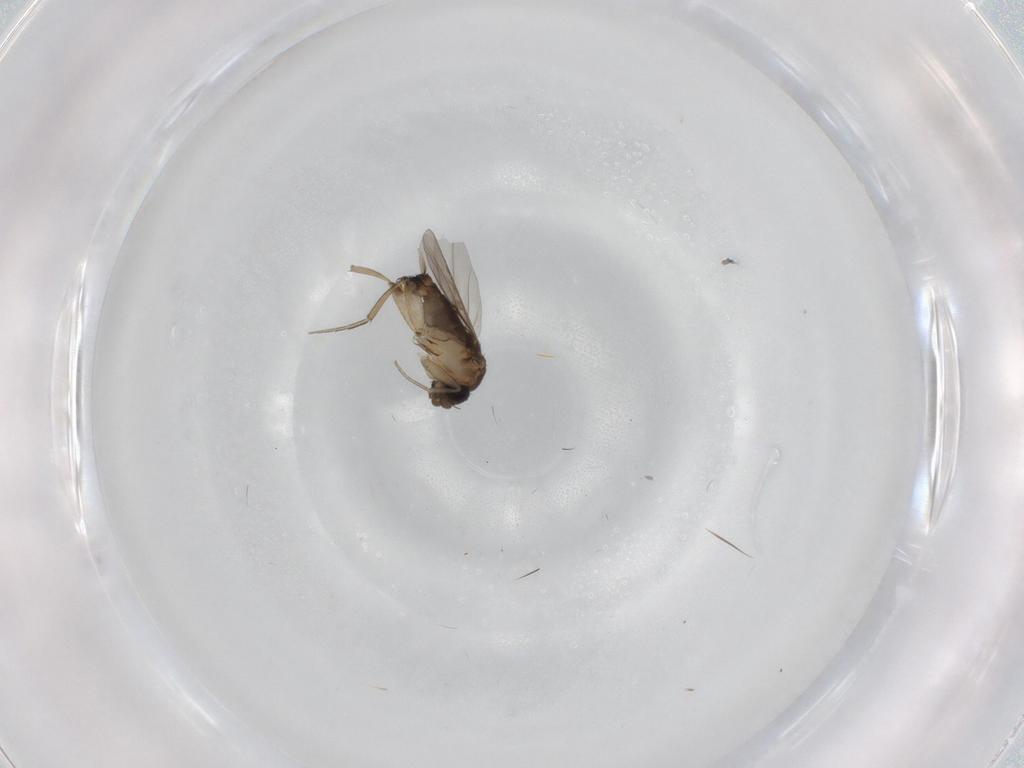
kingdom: Animalia
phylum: Arthropoda
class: Insecta
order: Diptera
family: Phoridae
